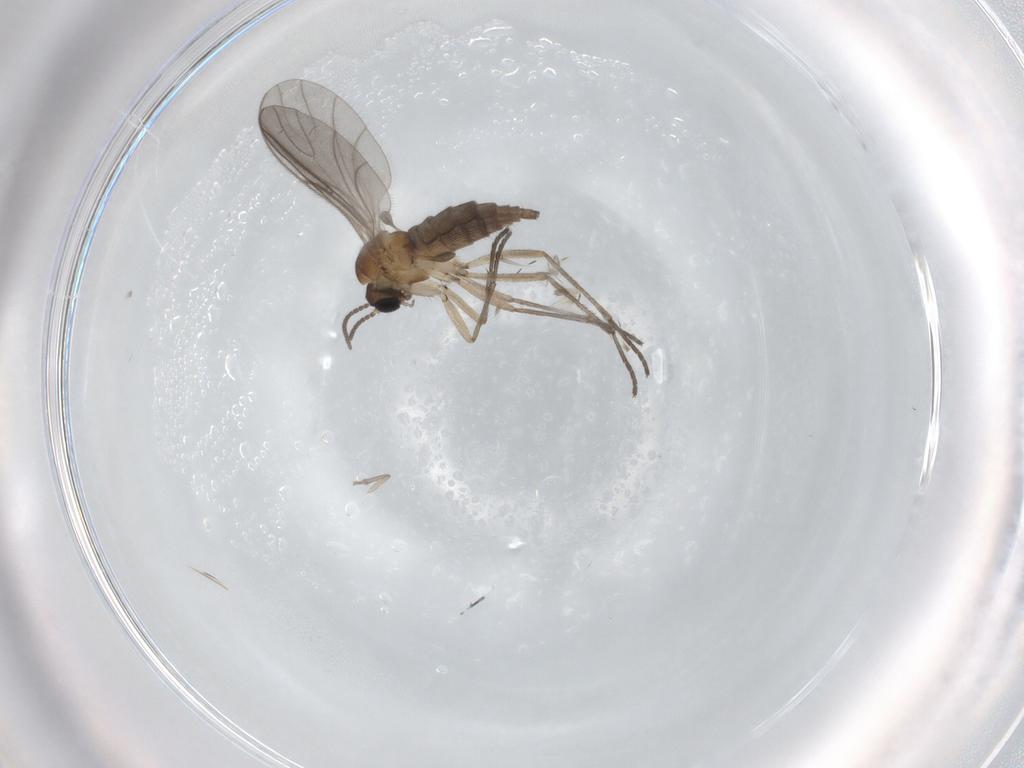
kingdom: Animalia
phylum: Arthropoda
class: Insecta
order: Diptera
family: Sciaridae
